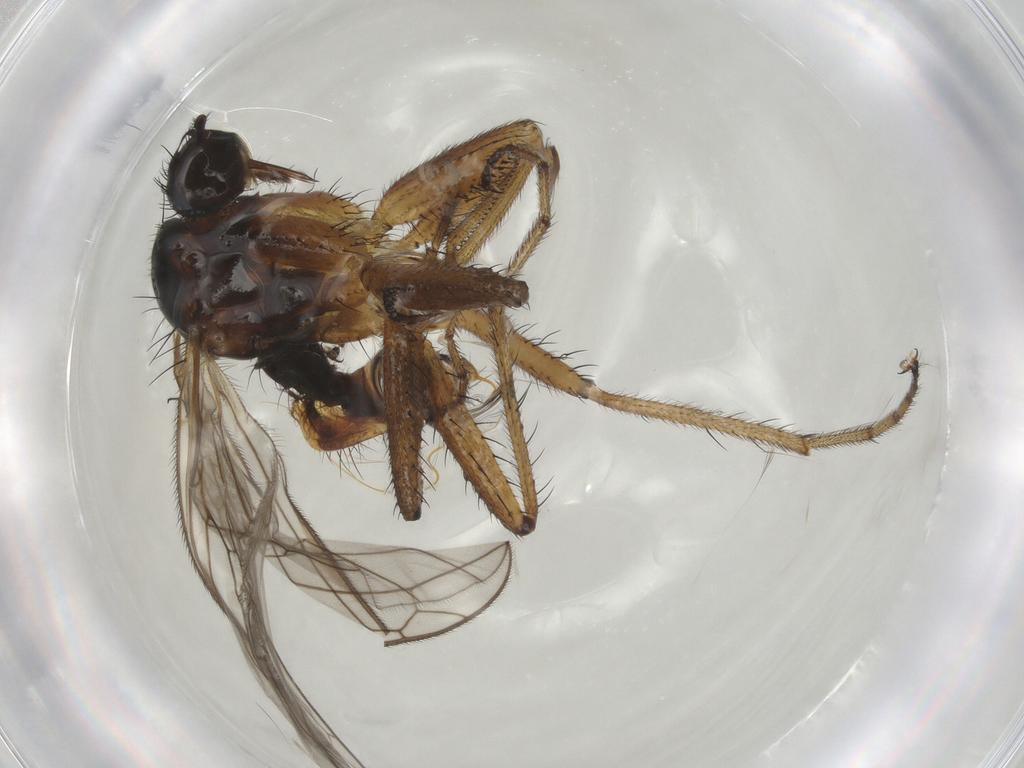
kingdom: Animalia
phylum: Arthropoda
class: Insecta
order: Diptera
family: Empididae
